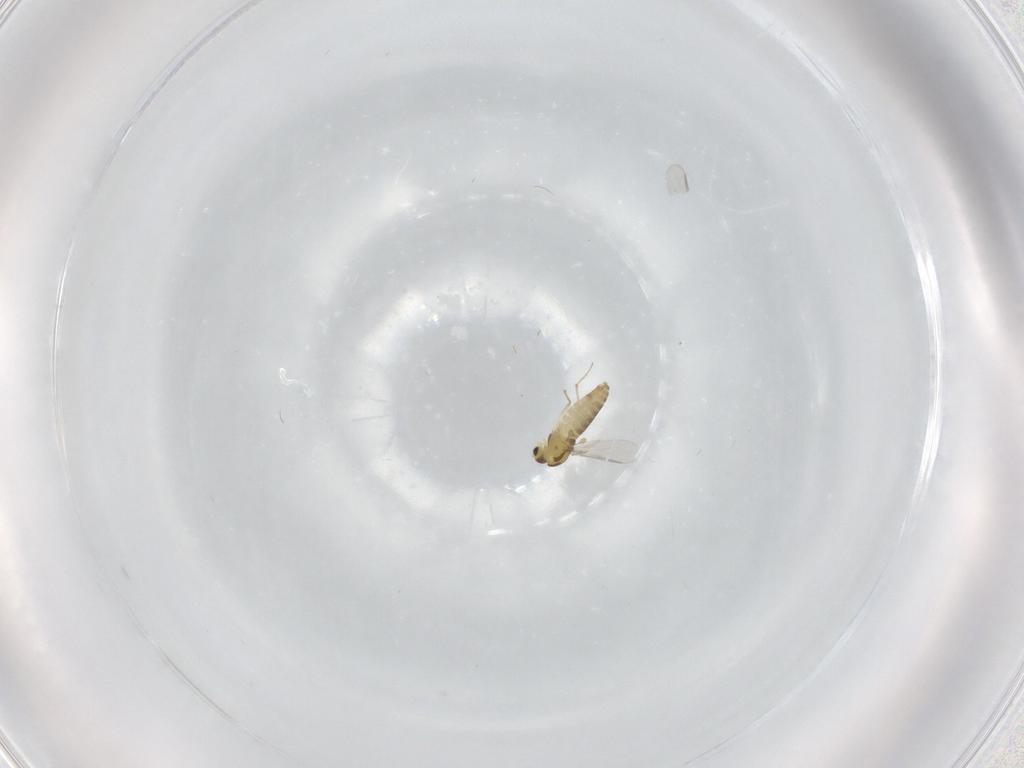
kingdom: Animalia
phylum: Arthropoda
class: Insecta
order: Diptera
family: Chironomidae
